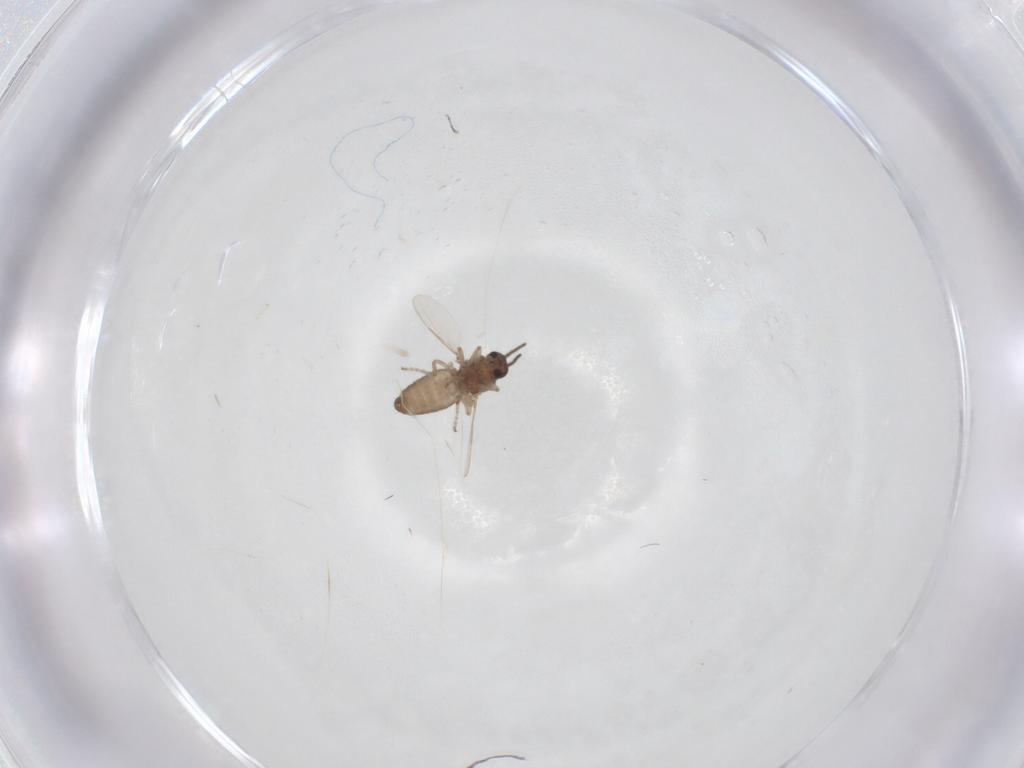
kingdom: Animalia
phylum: Arthropoda
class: Insecta
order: Diptera
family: Ceratopogonidae
